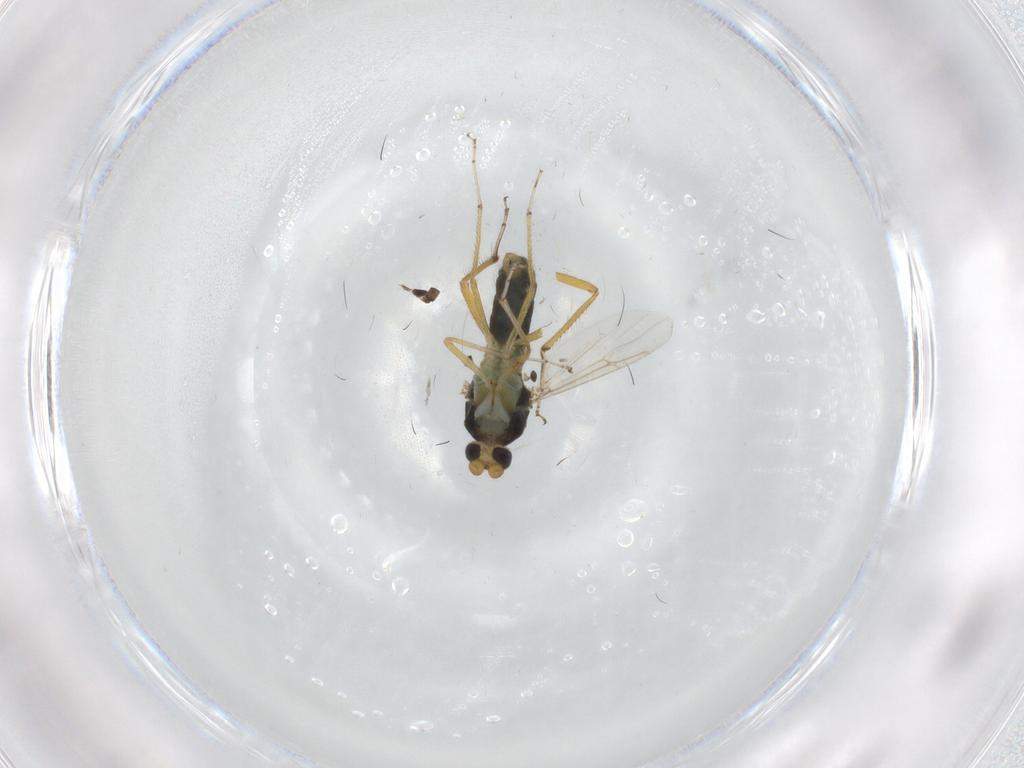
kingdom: Animalia
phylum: Arthropoda
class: Insecta
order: Diptera
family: Ceratopogonidae
